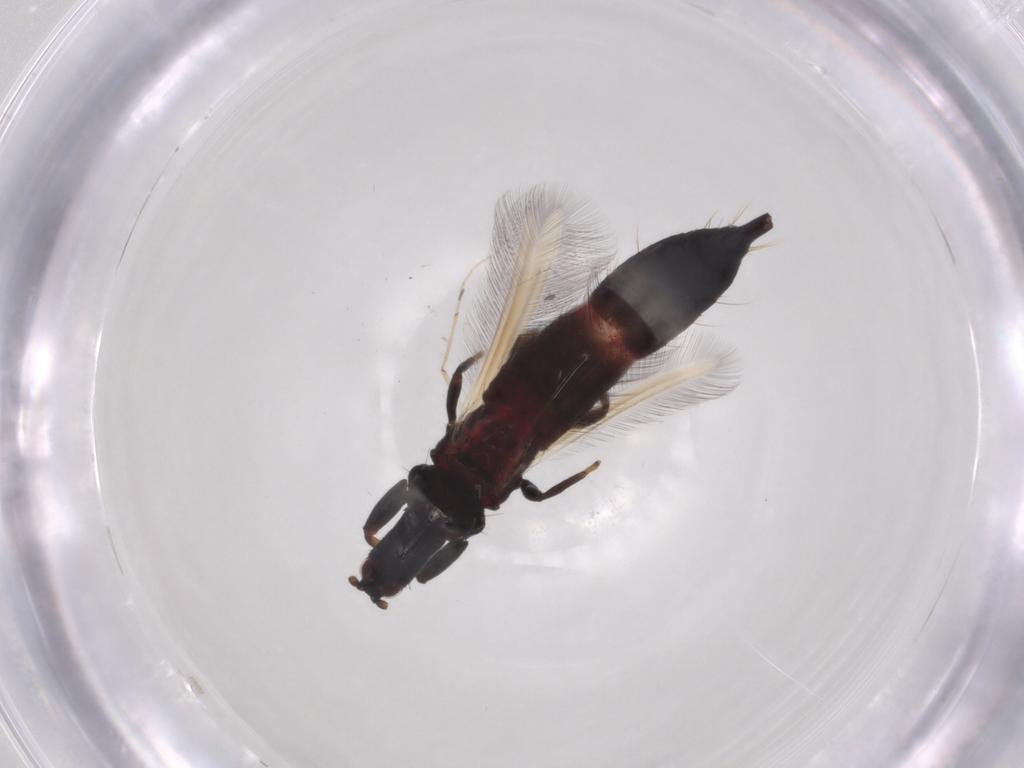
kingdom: Animalia
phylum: Arthropoda
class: Insecta
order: Thysanoptera
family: Phlaeothripidae
